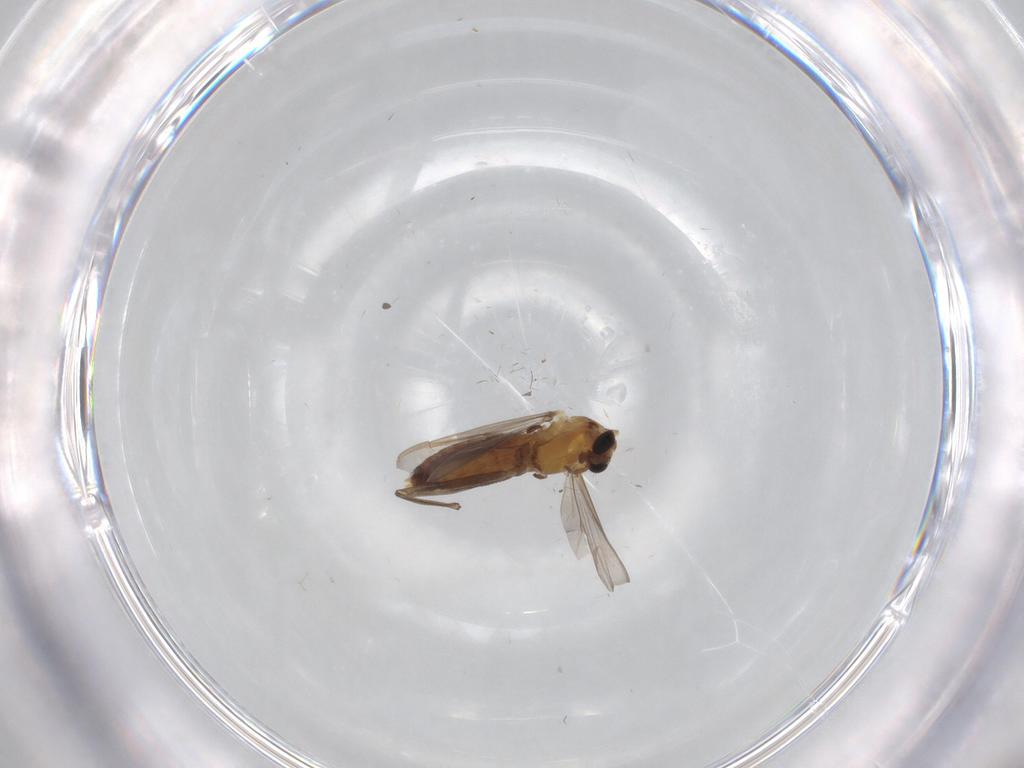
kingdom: Animalia
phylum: Arthropoda
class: Insecta
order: Diptera
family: Chironomidae
